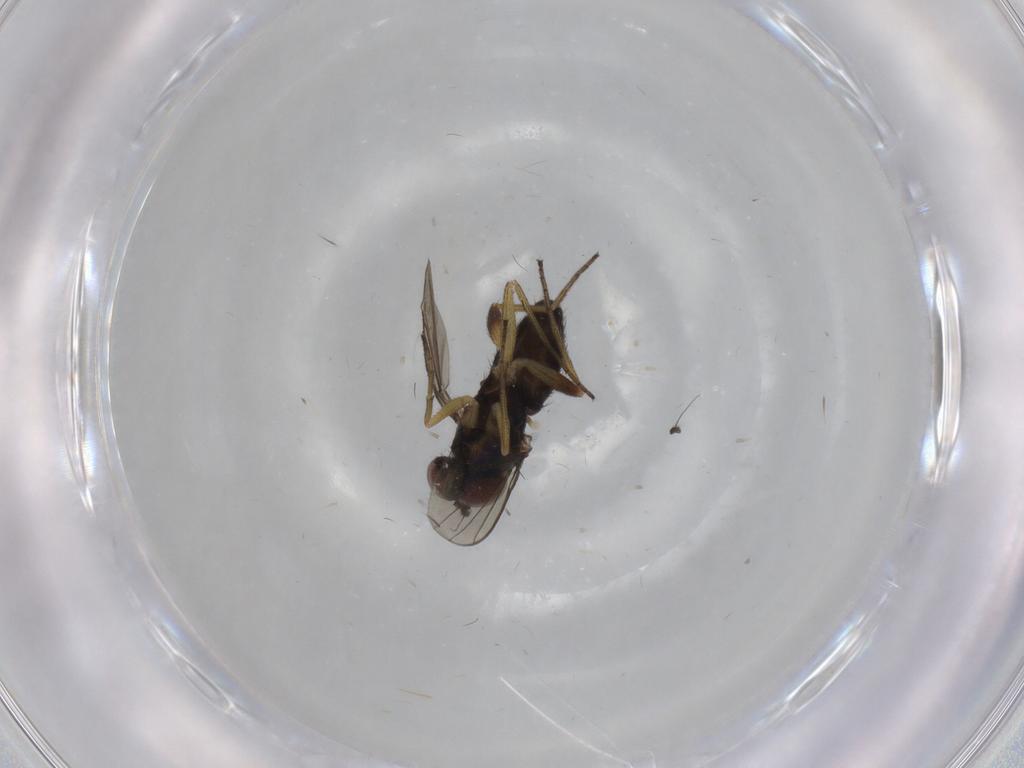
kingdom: Animalia
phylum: Arthropoda
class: Insecta
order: Diptera
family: Dolichopodidae
